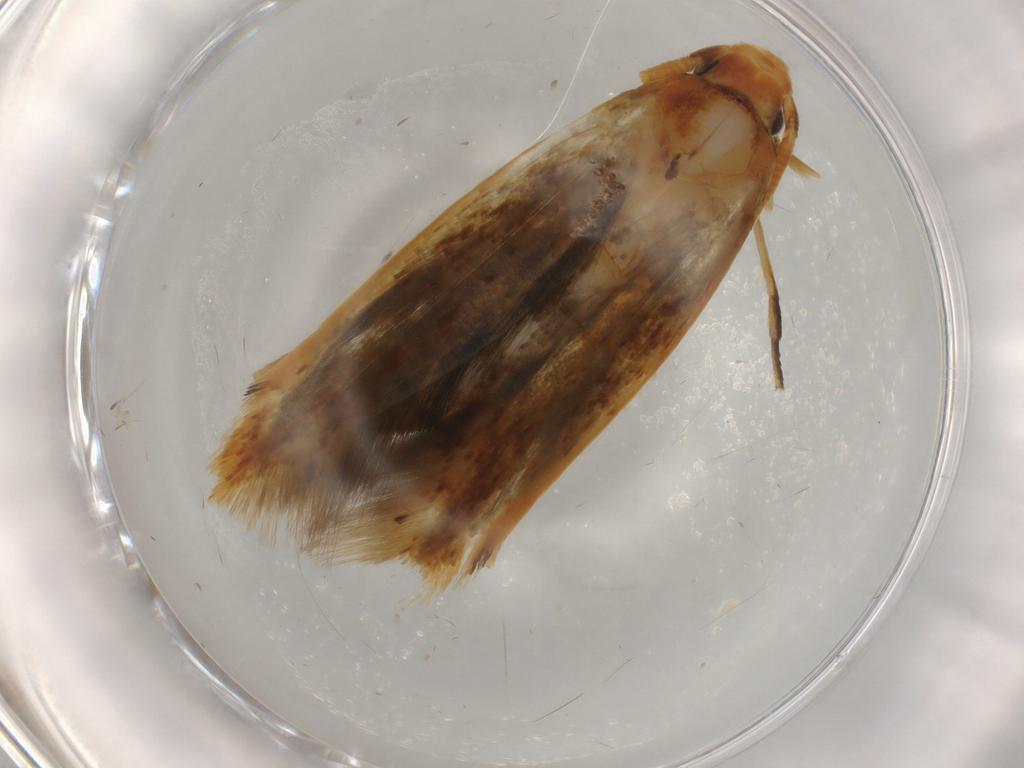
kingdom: Animalia
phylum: Arthropoda
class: Insecta
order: Lepidoptera
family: Tineidae
